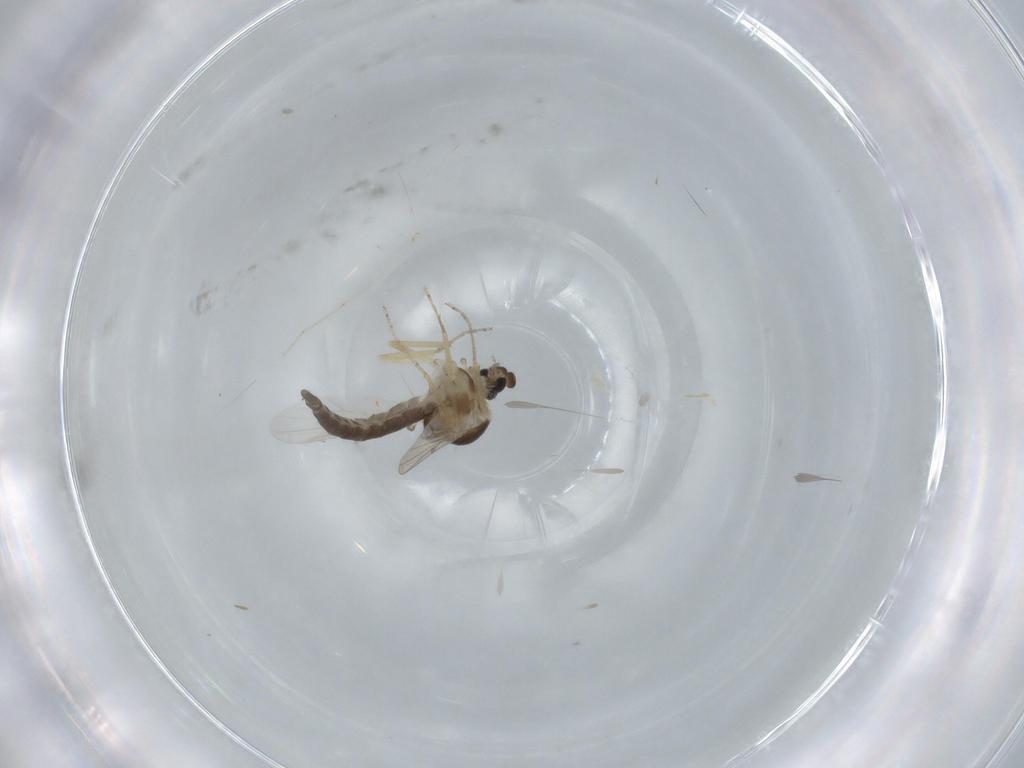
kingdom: Animalia
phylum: Arthropoda
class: Insecta
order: Diptera
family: Ceratopogonidae
